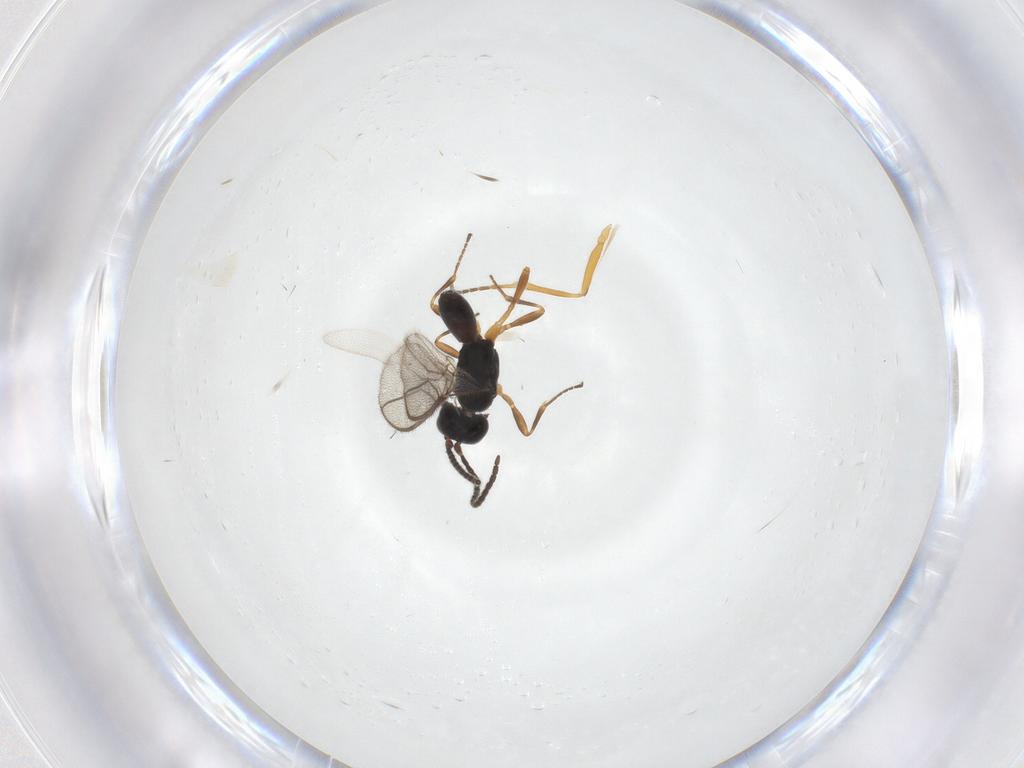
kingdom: Animalia
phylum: Arthropoda
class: Insecta
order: Hymenoptera
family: Braconidae
